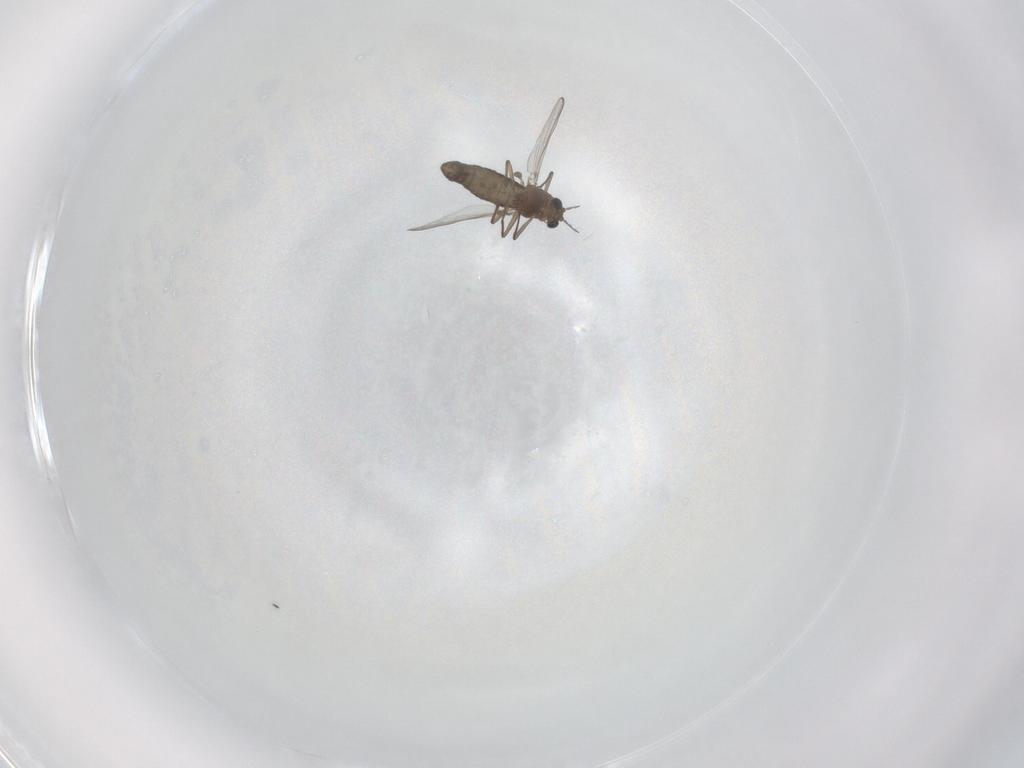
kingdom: Animalia
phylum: Arthropoda
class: Insecta
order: Diptera
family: Chironomidae
